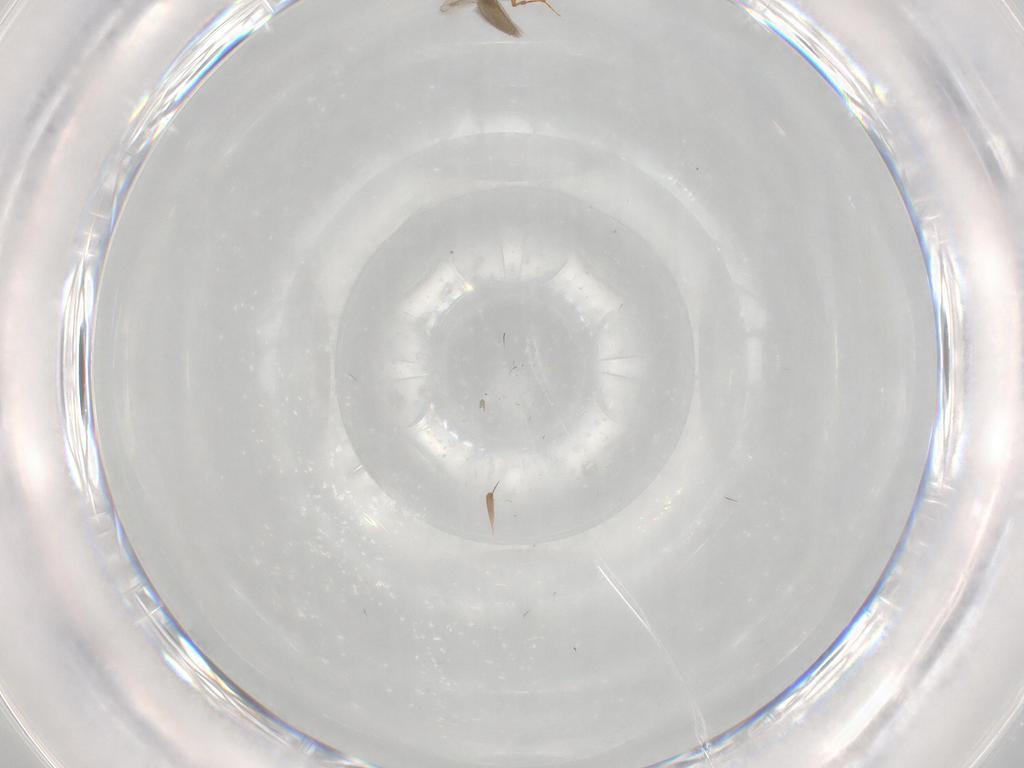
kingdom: Animalia
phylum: Arthropoda
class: Insecta
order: Hymenoptera
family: Platygastridae
